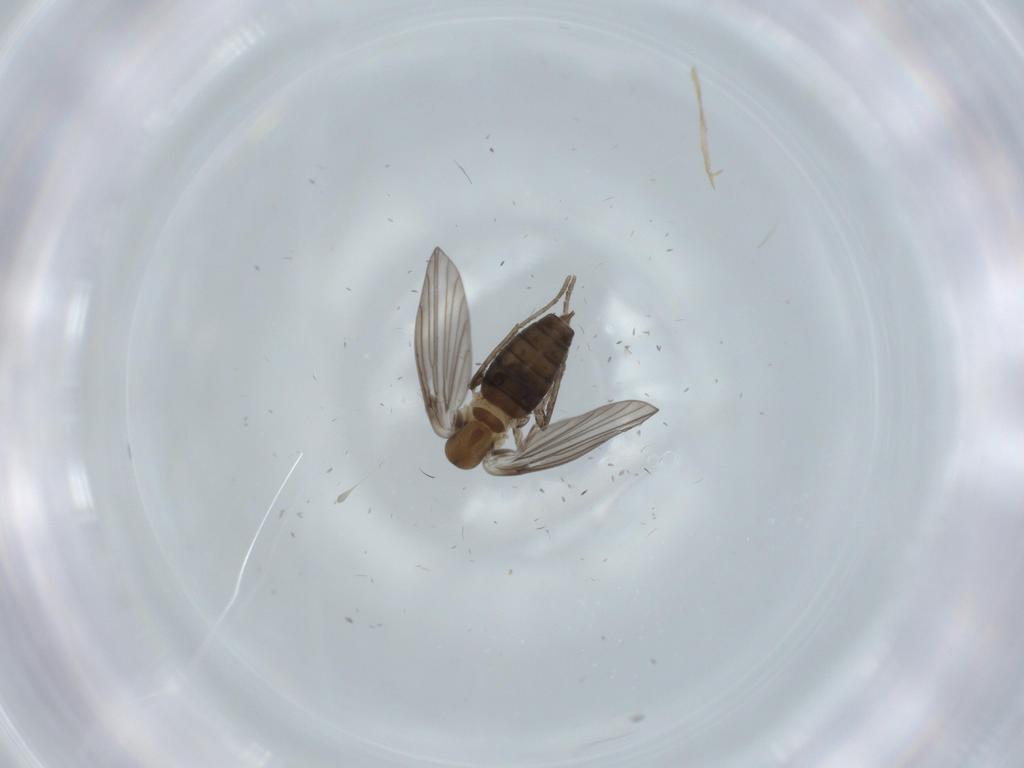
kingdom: Animalia
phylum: Arthropoda
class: Insecta
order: Diptera
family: Psychodidae
